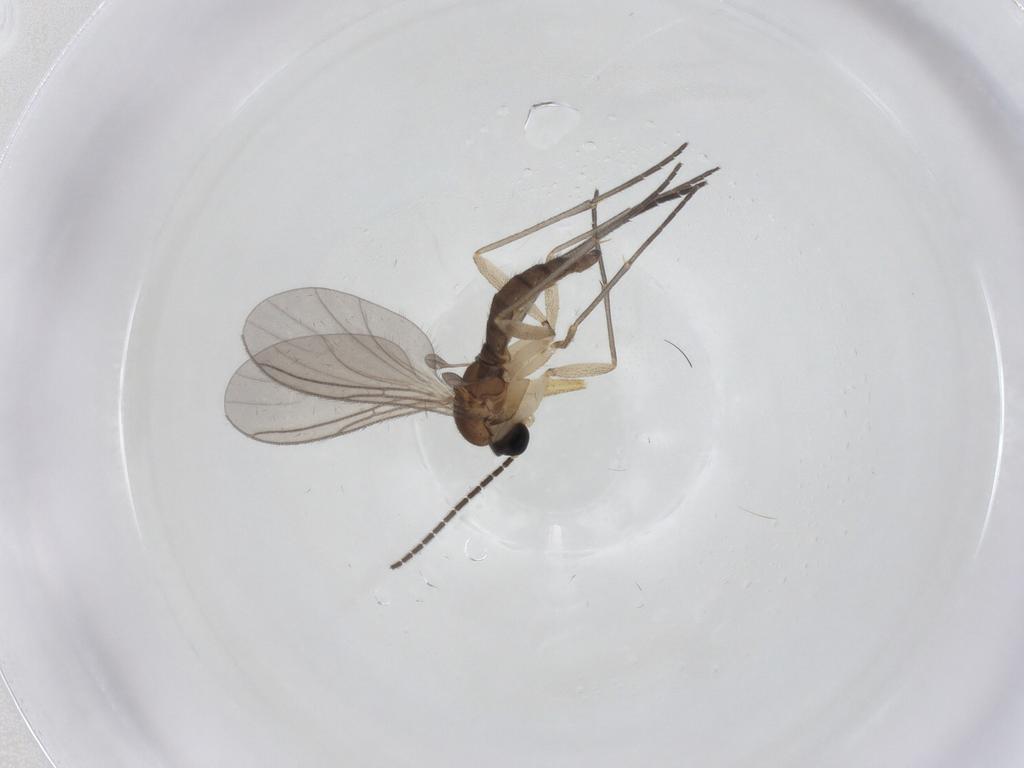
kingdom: Animalia
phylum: Arthropoda
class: Insecta
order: Diptera
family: Sciaridae
